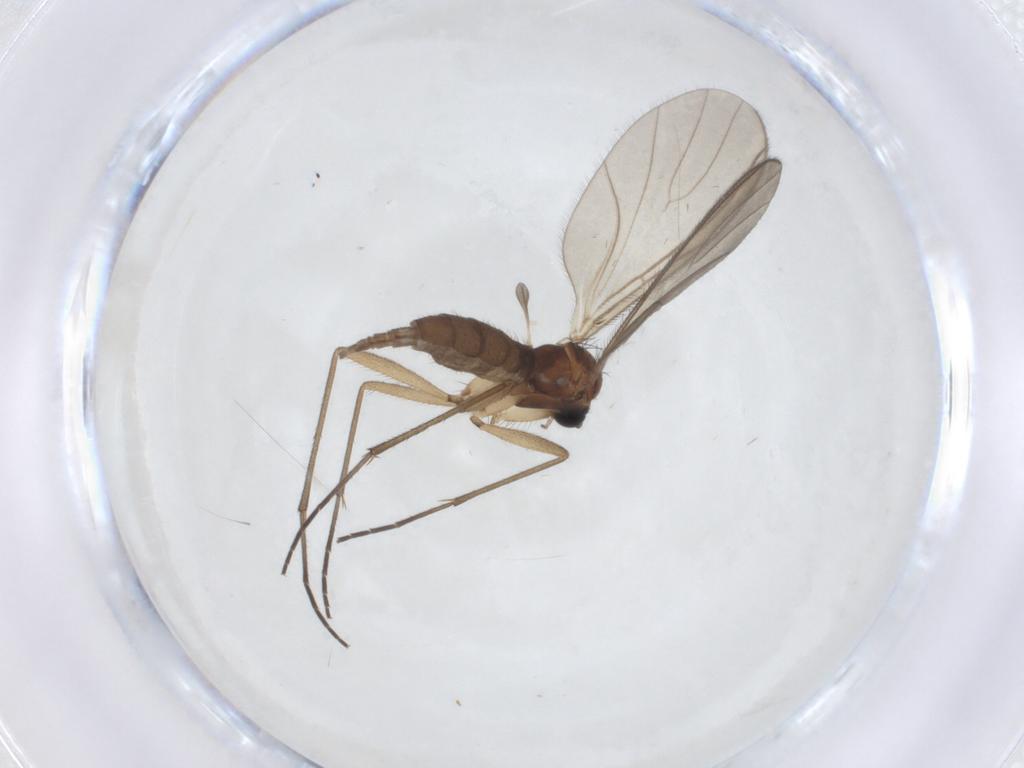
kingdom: Animalia
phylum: Arthropoda
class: Insecta
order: Diptera
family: Sciaridae
